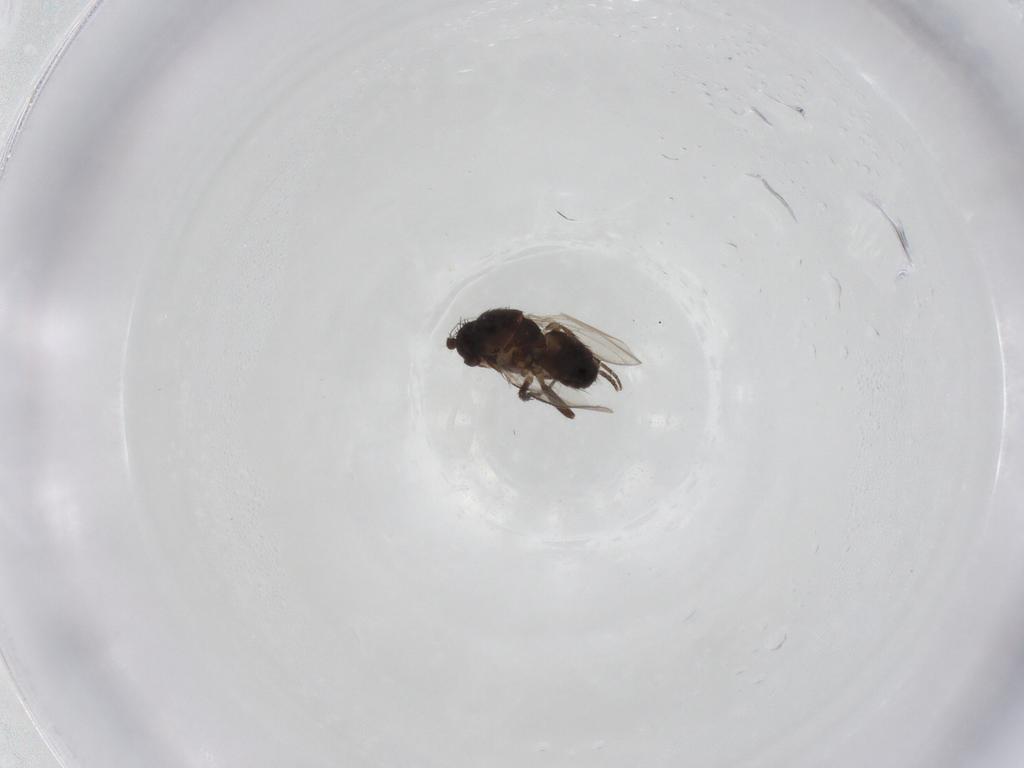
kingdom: Animalia
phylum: Arthropoda
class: Insecta
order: Diptera
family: Sphaeroceridae
